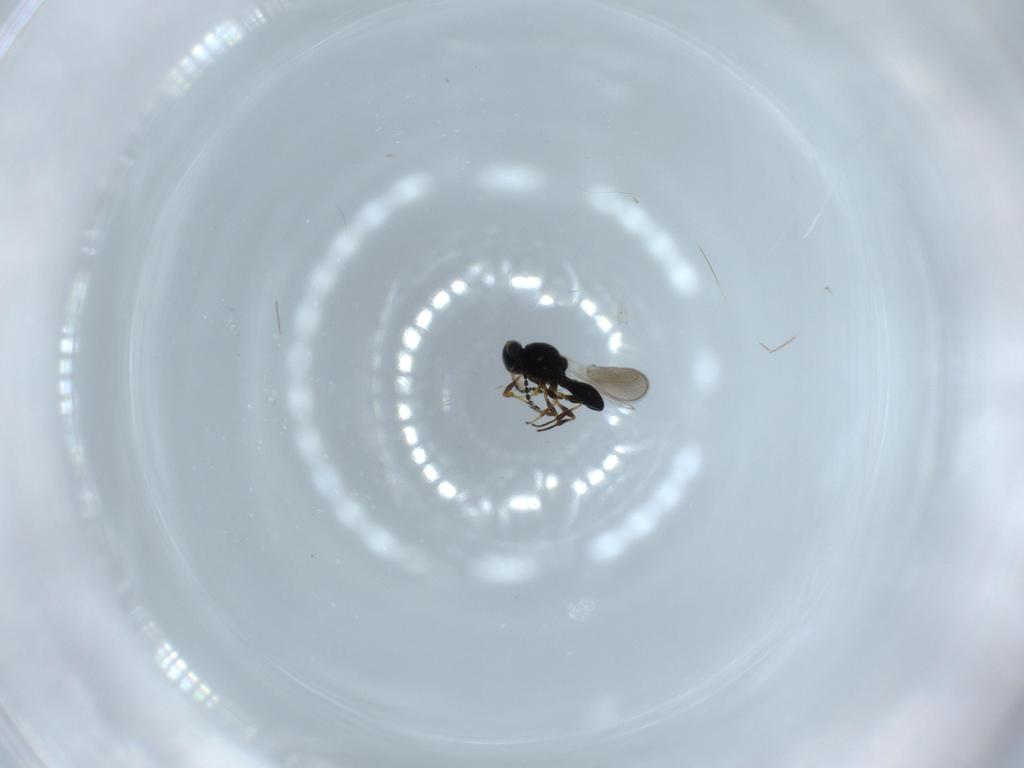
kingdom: Animalia
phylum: Arthropoda
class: Insecta
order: Hymenoptera
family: Platygastridae
